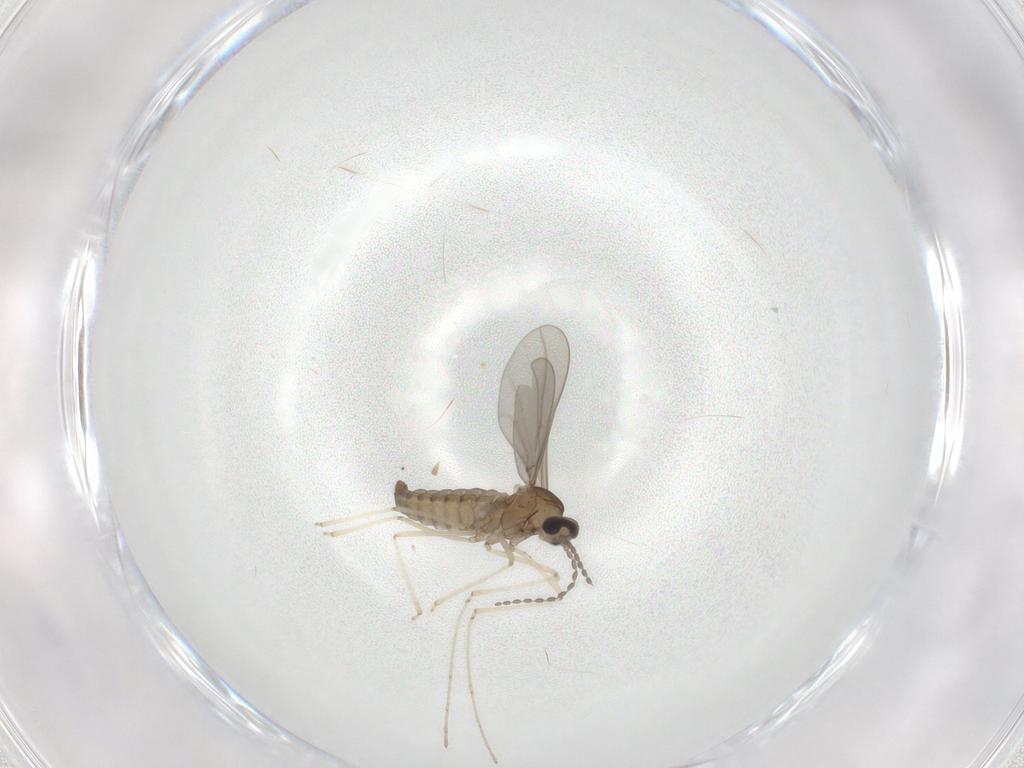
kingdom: Animalia
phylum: Arthropoda
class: Insecta
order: Diptera
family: Cecidomyiidae
